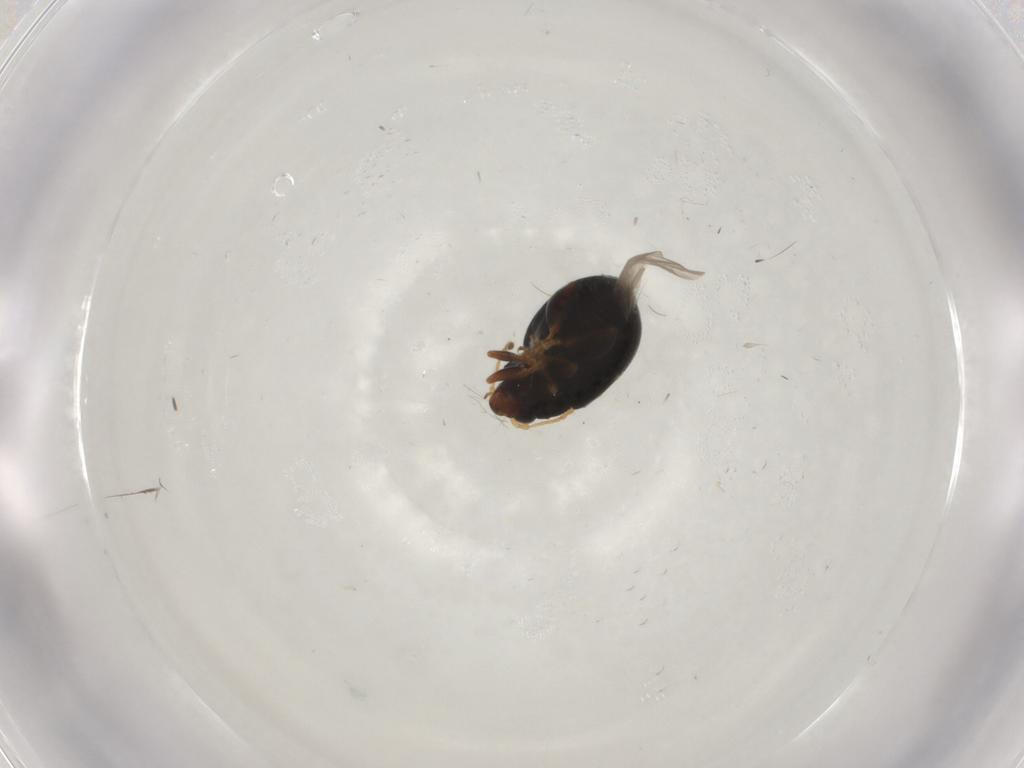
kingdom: Animalia
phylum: Arthropoda
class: Insecta
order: Coleoptera
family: Chrysomelidae
